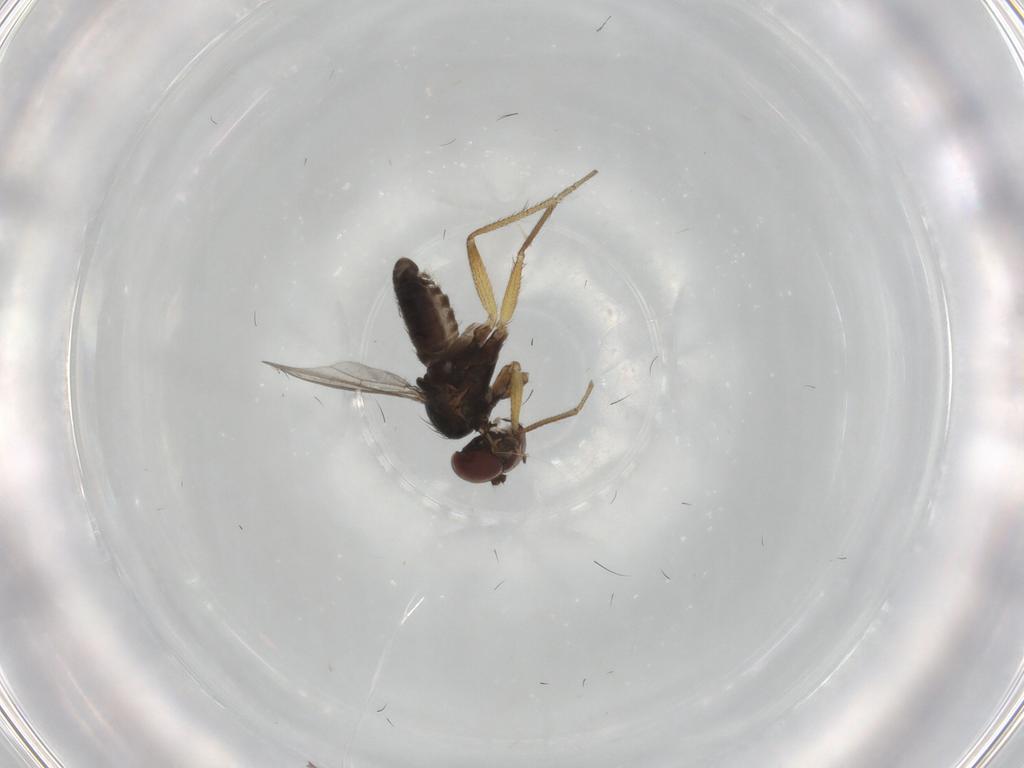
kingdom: Animalia
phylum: Arthropoda
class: Insecta
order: Diptera
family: Dolichopodidae
